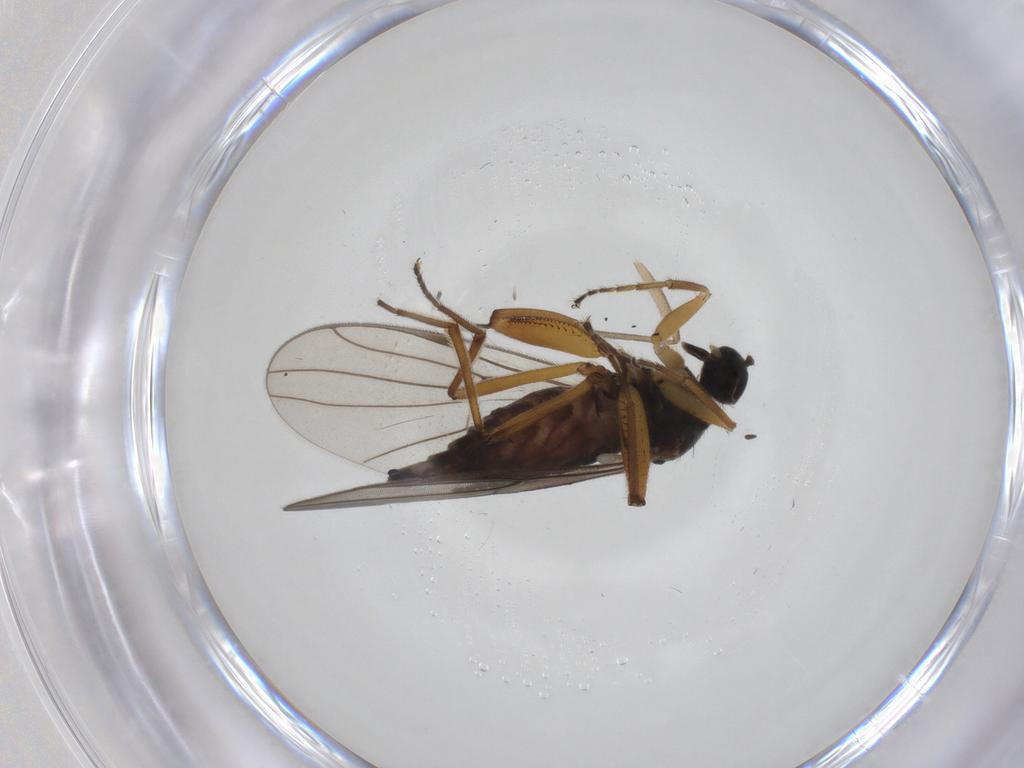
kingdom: Animalia
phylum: Arthropoda
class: Insecta
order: Diptera
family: Hybotidae
